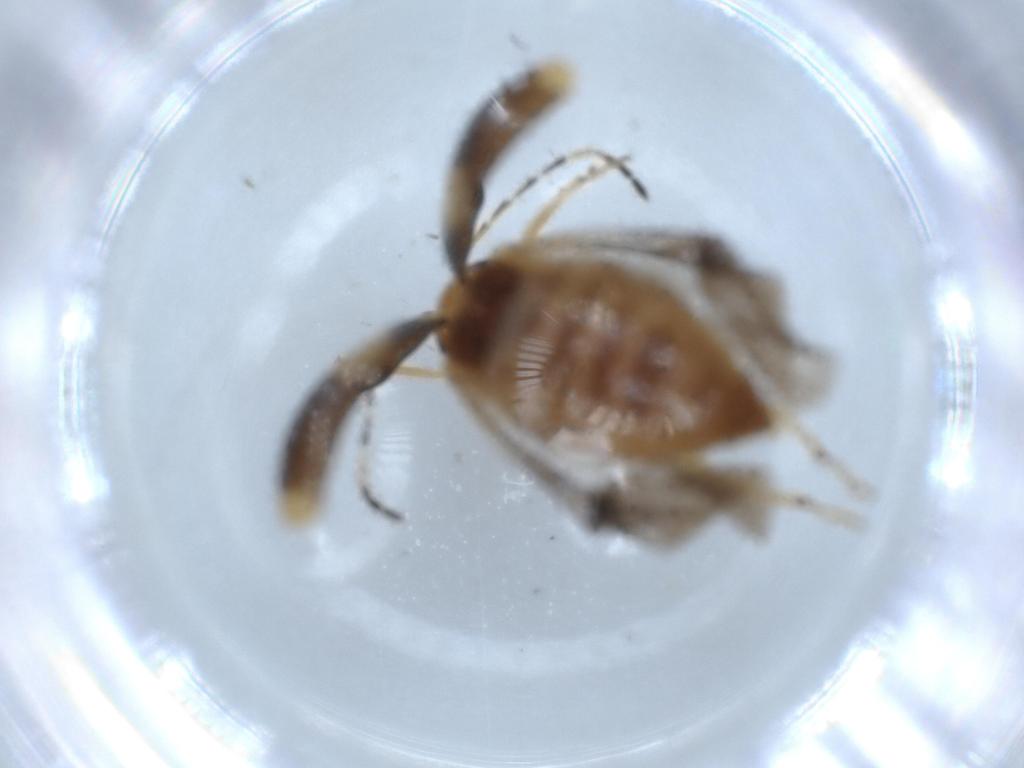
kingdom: Animalia
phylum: Arthropoda
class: Insecta
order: Coleoptera
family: Chrysomelidae
